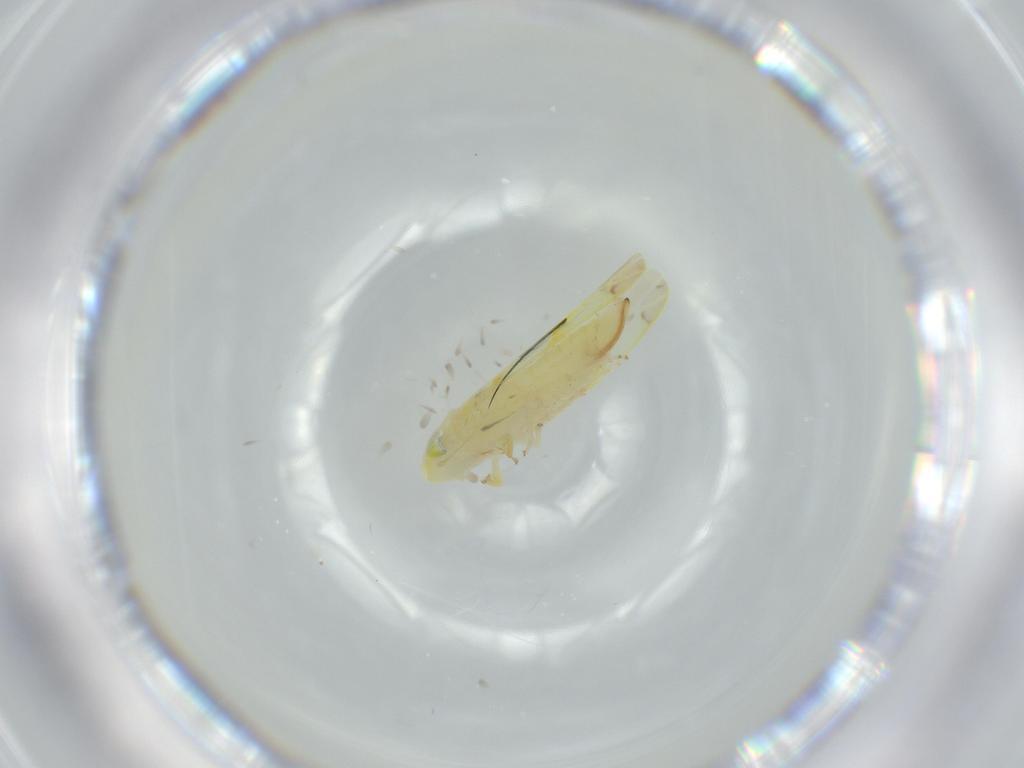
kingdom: Animalia
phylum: Arthropoda
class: Insecta
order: Hemiptera
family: Cicadellidae
